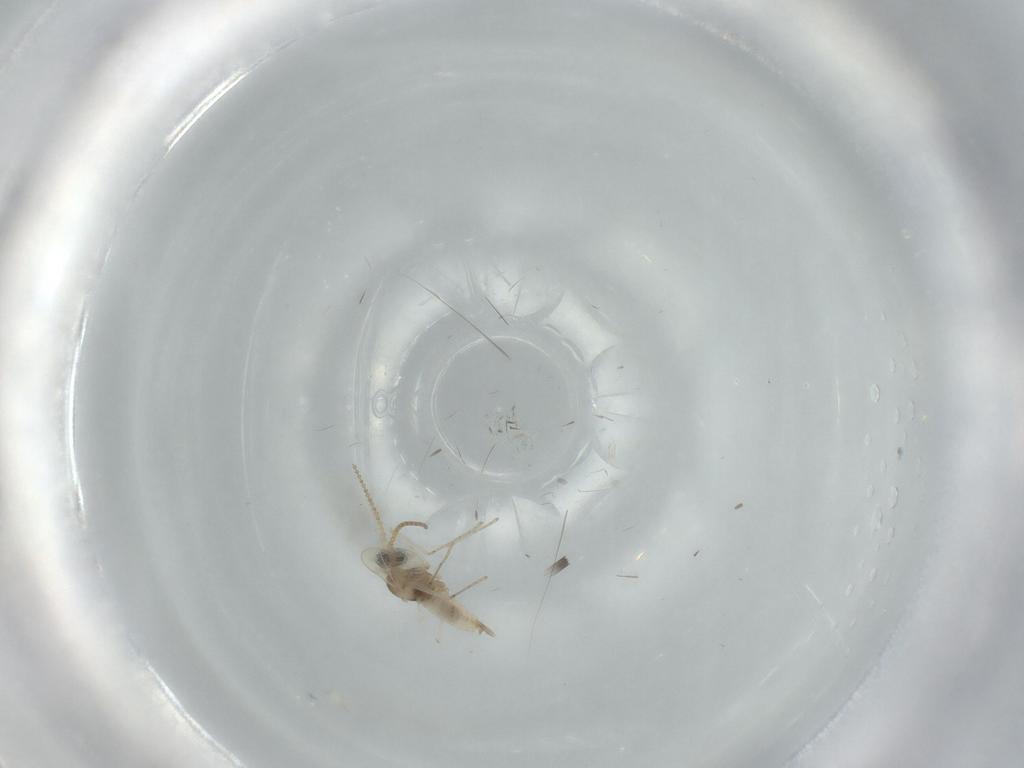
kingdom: Animalia
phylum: Arthropoda
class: Insecta
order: Diptera
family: Cecidomyiidae
